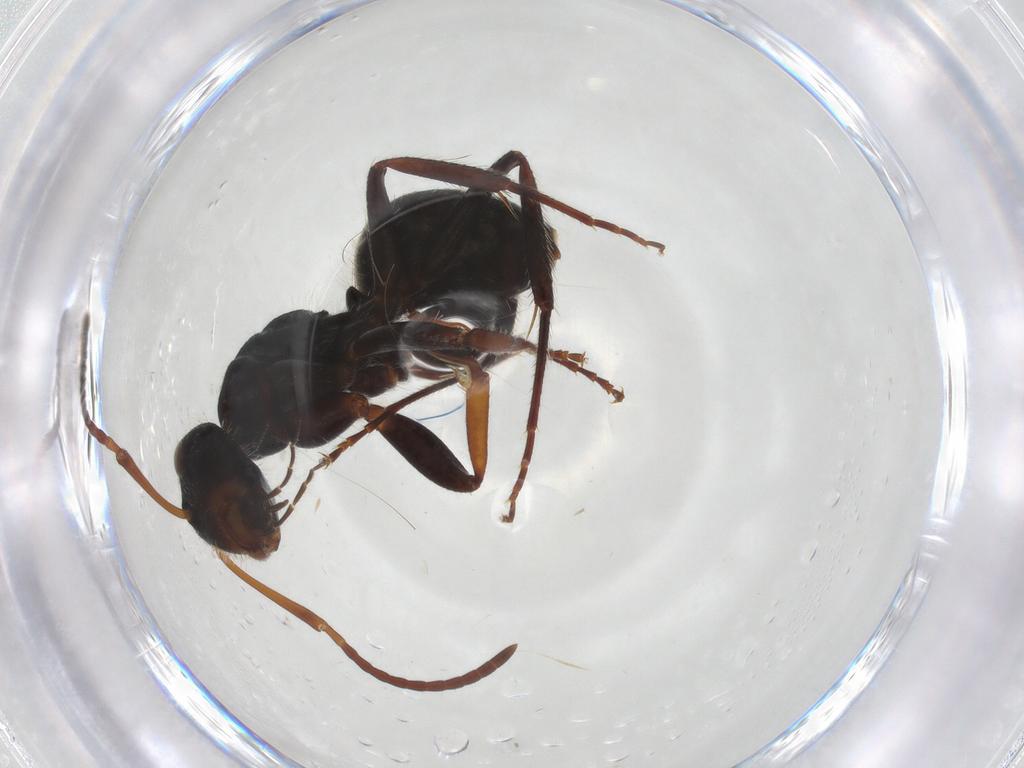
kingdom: Animalia
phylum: Arthropoda
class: Insecta
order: Hymenoptera
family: Formicidae
